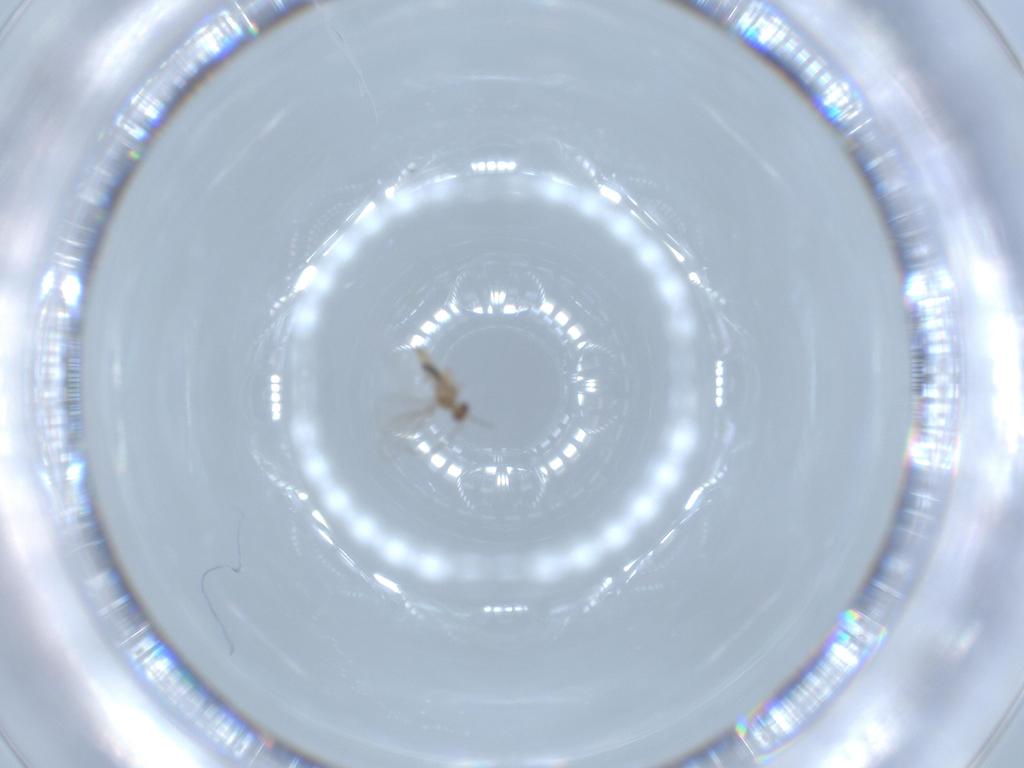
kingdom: Animalia
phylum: Arthropoda
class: Insecta
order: Diptera
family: Cecidomyiidae
